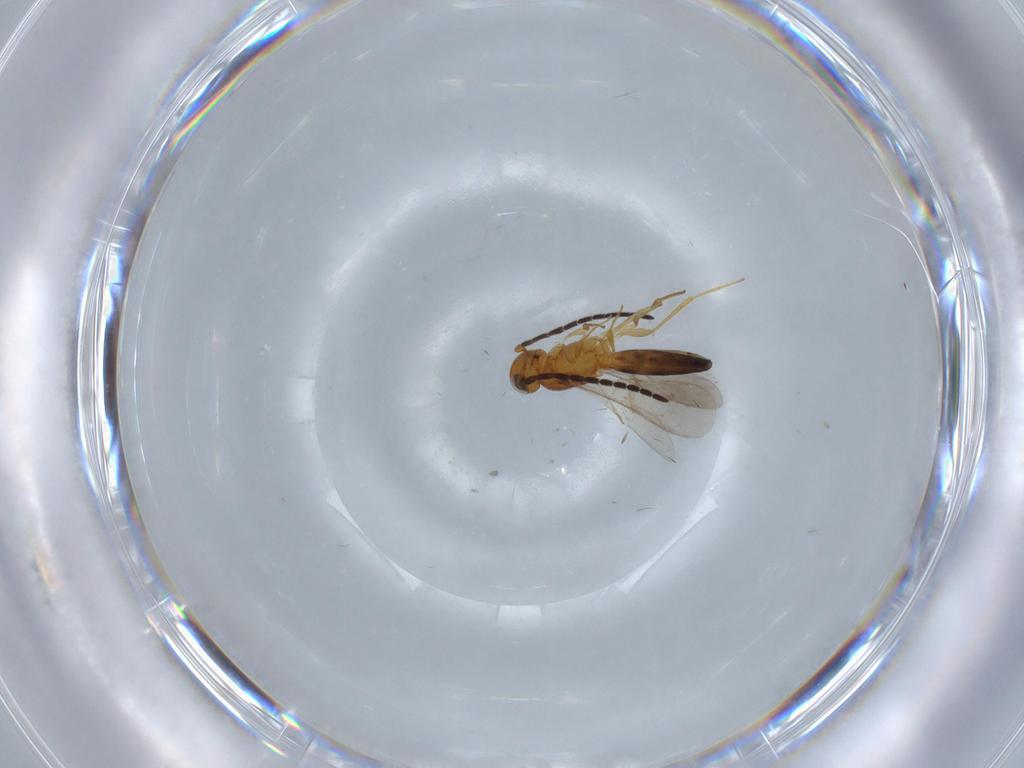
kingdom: Animalia
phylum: Arthropoda
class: Insecta
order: Hymenoptera
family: Scelionidae
